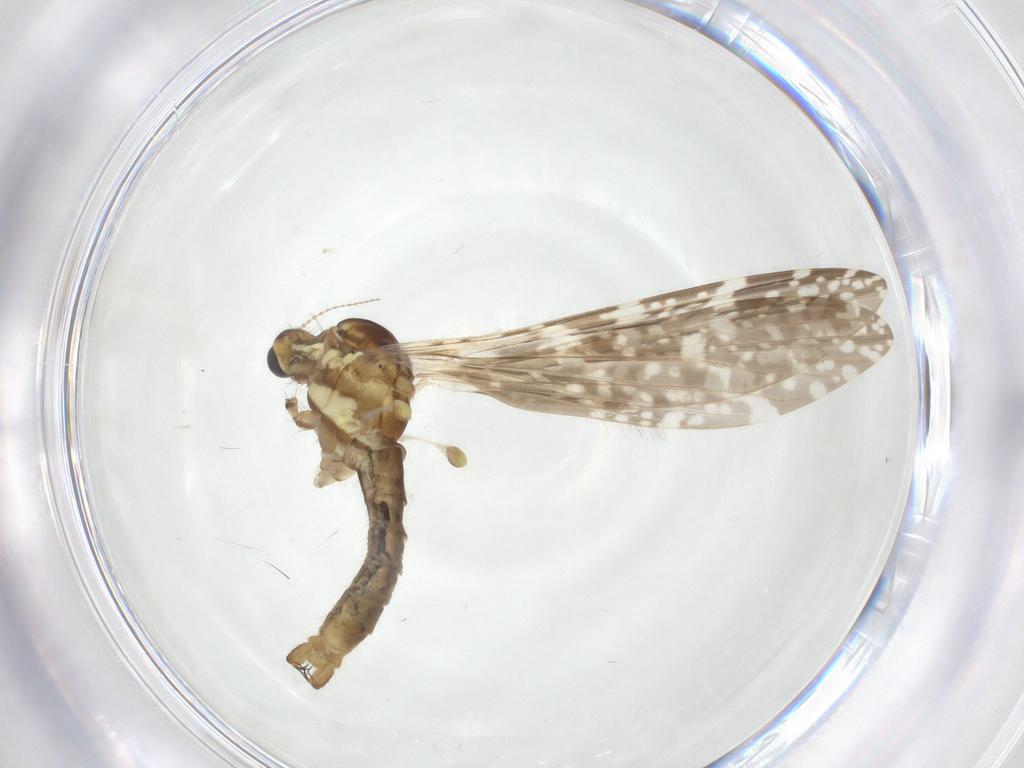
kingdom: Animalia
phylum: Arthropoda
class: Insecta
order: Diptera
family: Limoniidae
